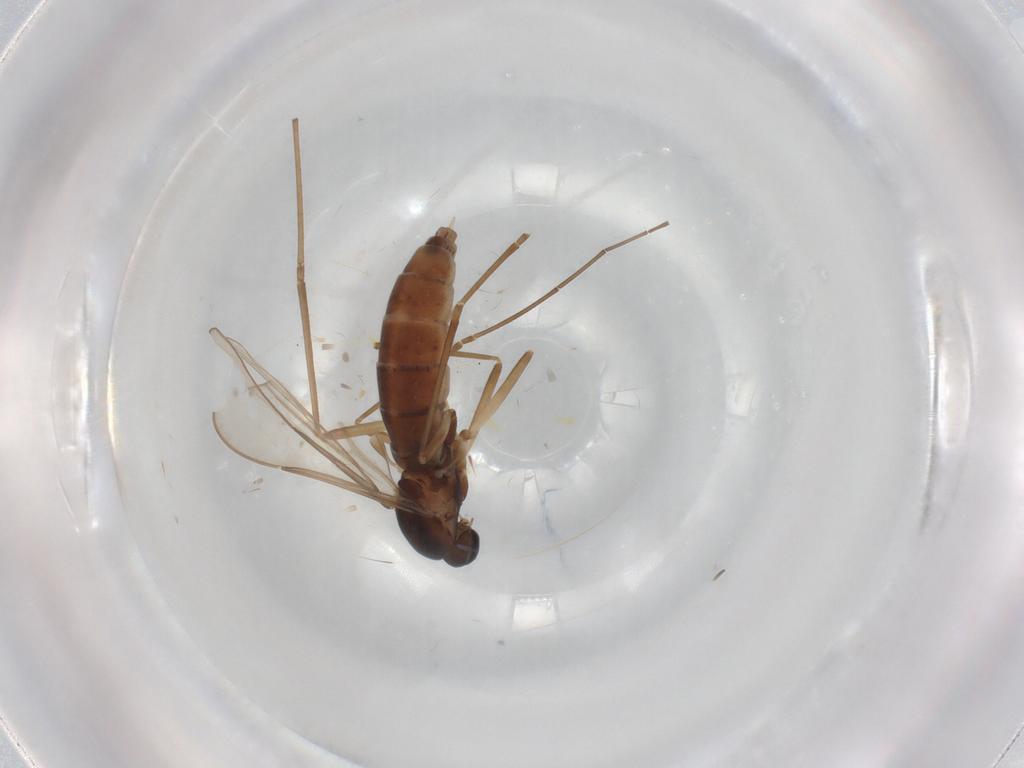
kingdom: Animalia
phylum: Arthropoda
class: Insecta
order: Diptera
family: Cecidomyiidae
